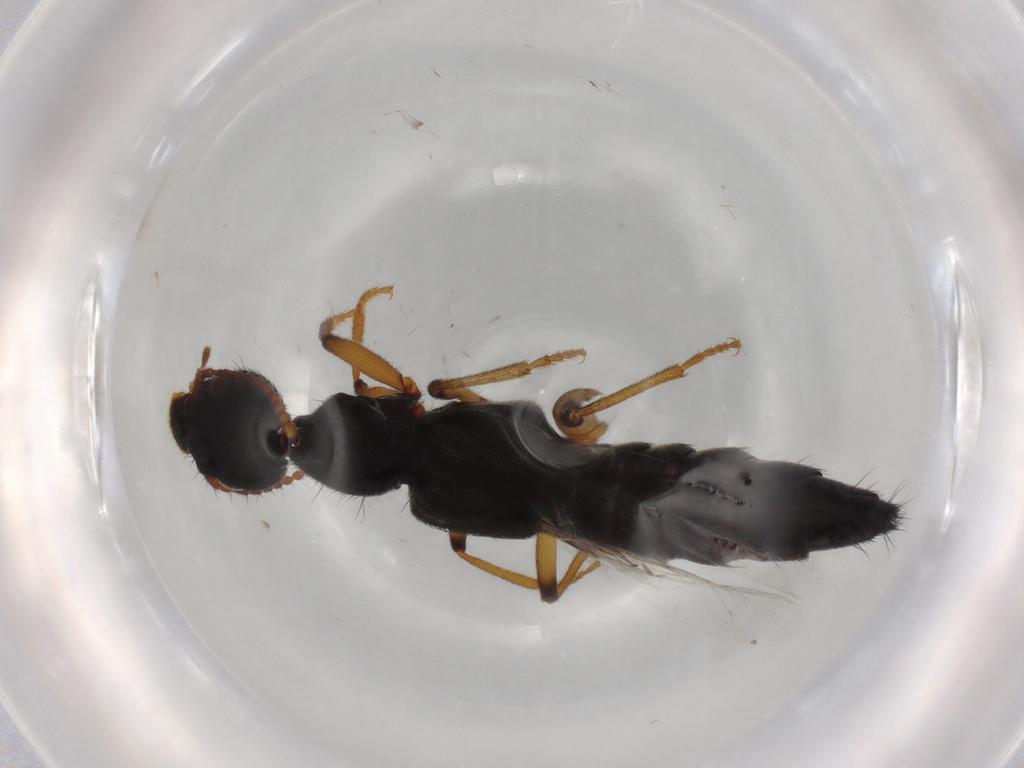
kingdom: Animalia
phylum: Arthropoda
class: Insecta
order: Coleoptera
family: Staphylinidae
